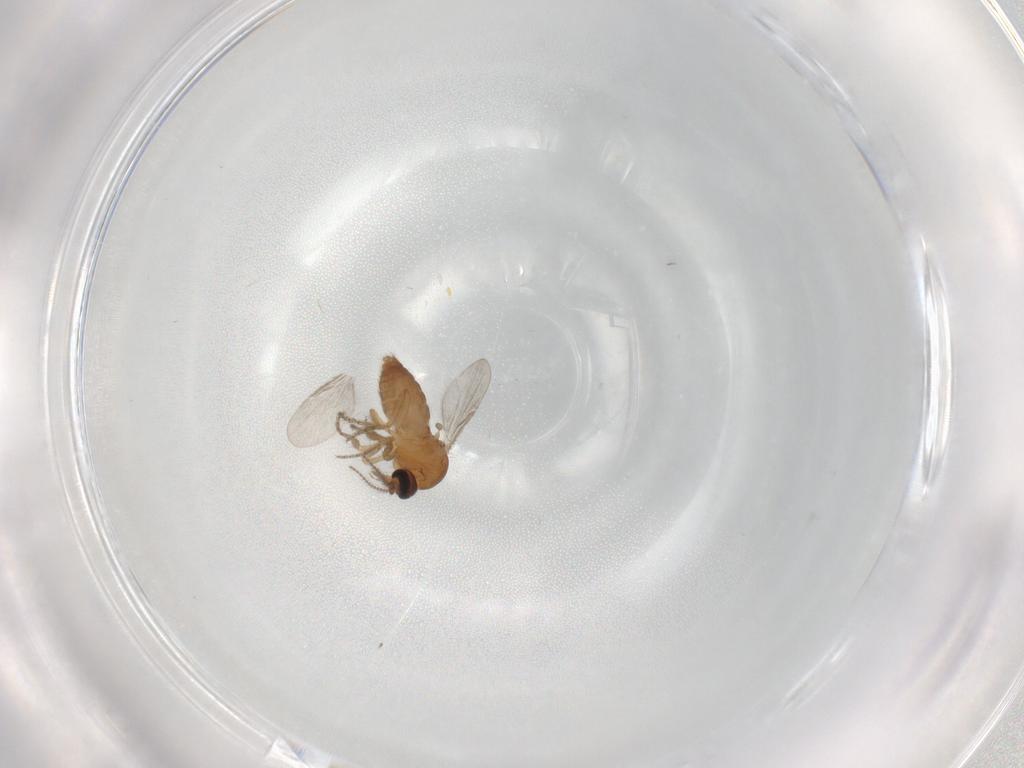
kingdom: Animalia
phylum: Arthropoda
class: Insecta
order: Diptera
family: Ceratopogonidae
